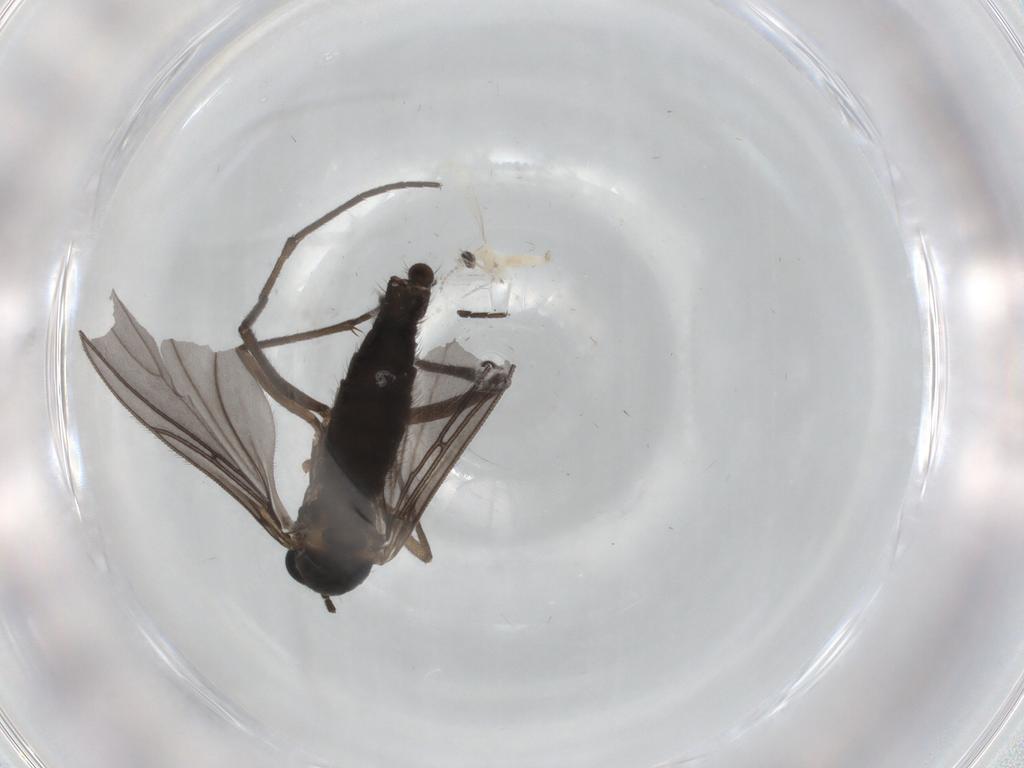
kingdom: Animalia
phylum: Arthropoda
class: Insecta
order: Diptera
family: Sciaridae
